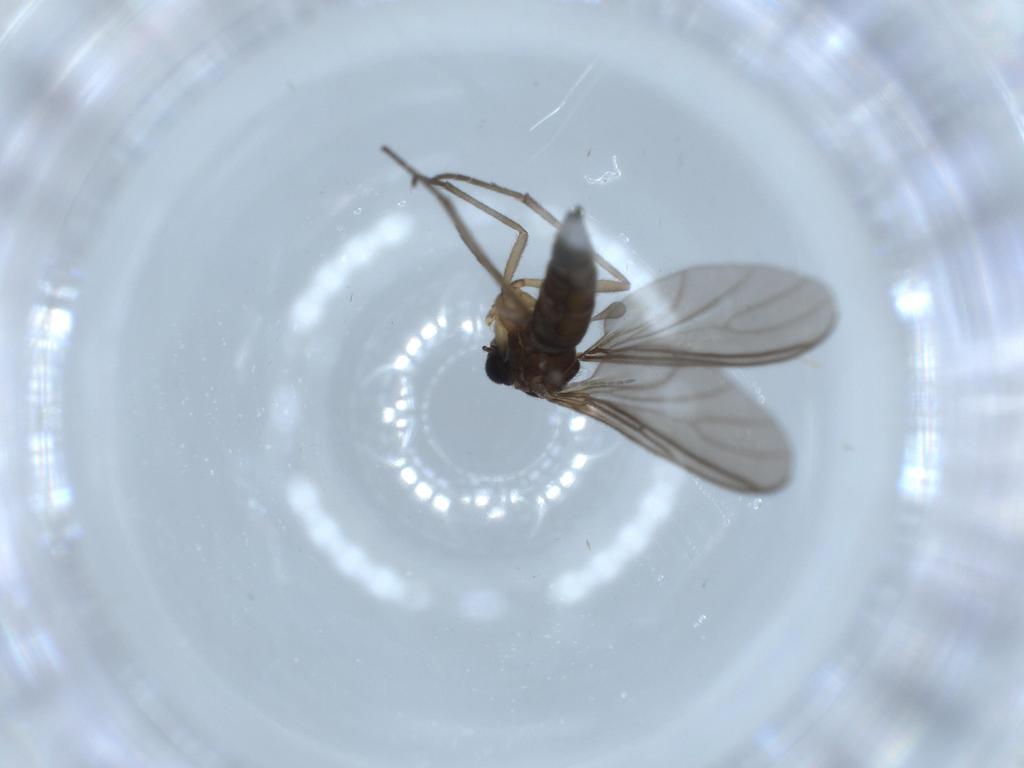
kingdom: Animalia
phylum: Arthropoda
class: Insecta
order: Diptera
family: Sciaridae
